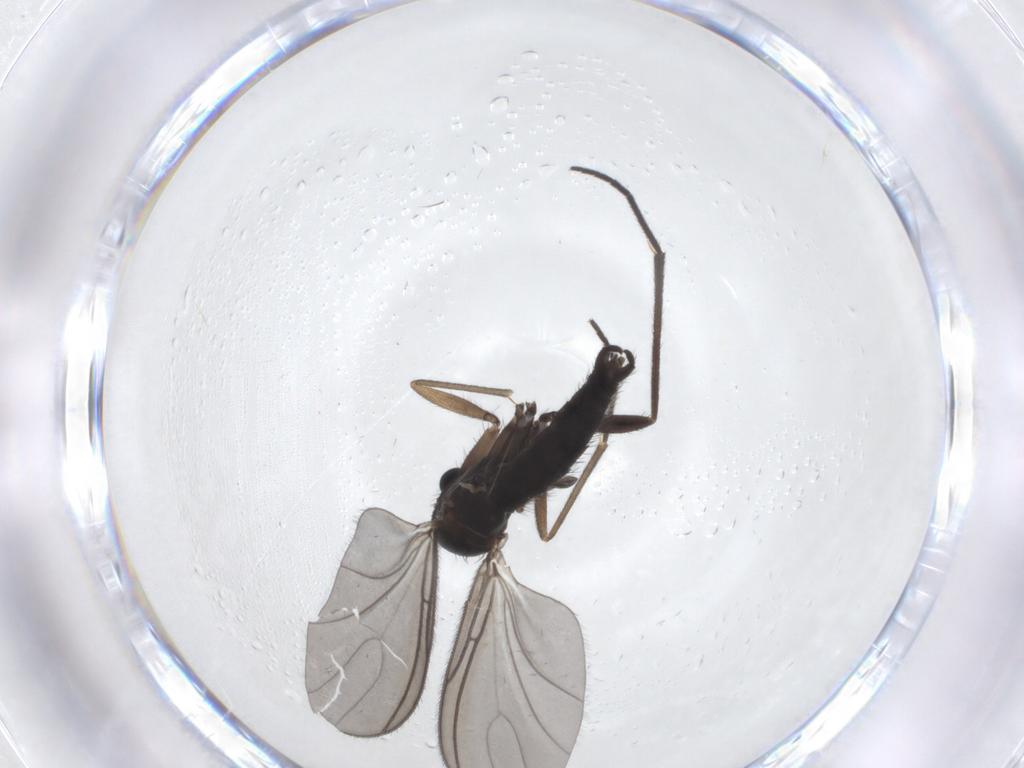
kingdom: Animalia
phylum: Arthropoda
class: Insecta
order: Diptera
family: Sciaridae
